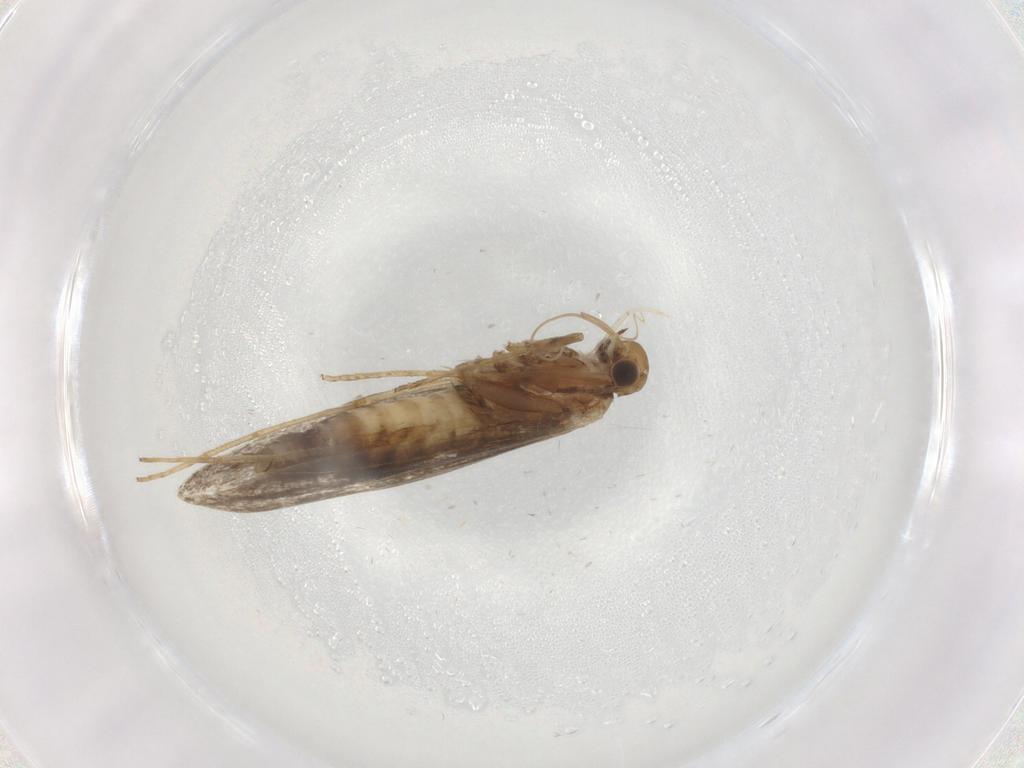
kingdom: Animalia
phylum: Arthropoda
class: Insecta
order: Lepidoptera
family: Gracillariidae
